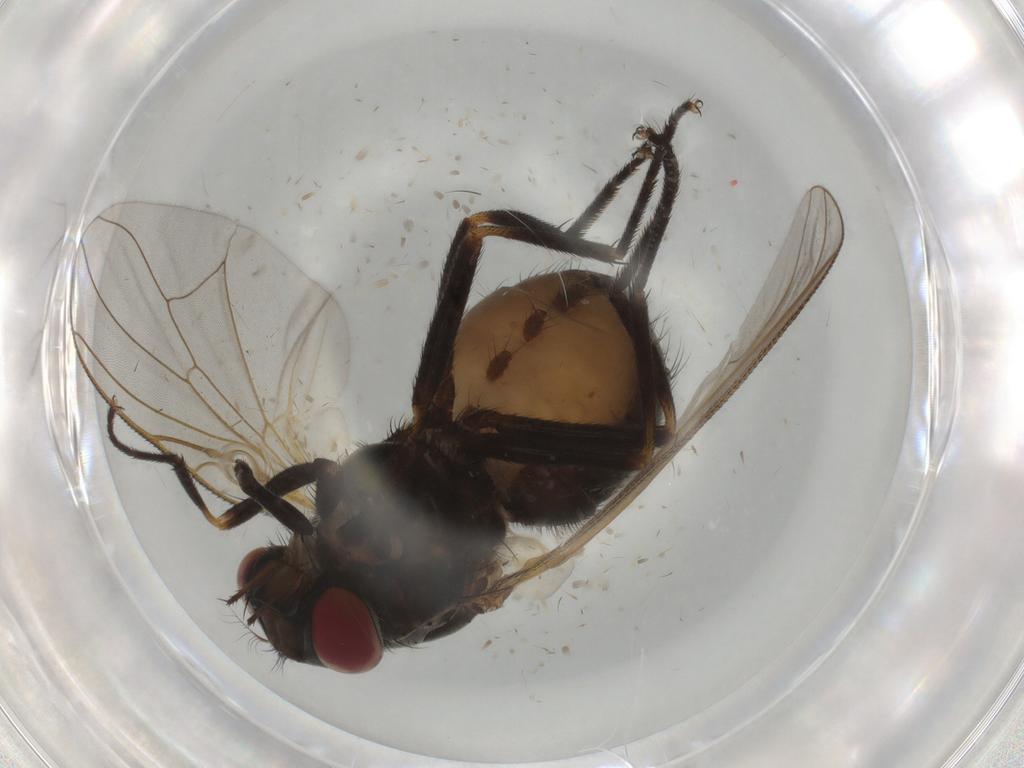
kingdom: Animalia
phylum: Arthropoda
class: Insecta
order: Diptera
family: Muscidae
